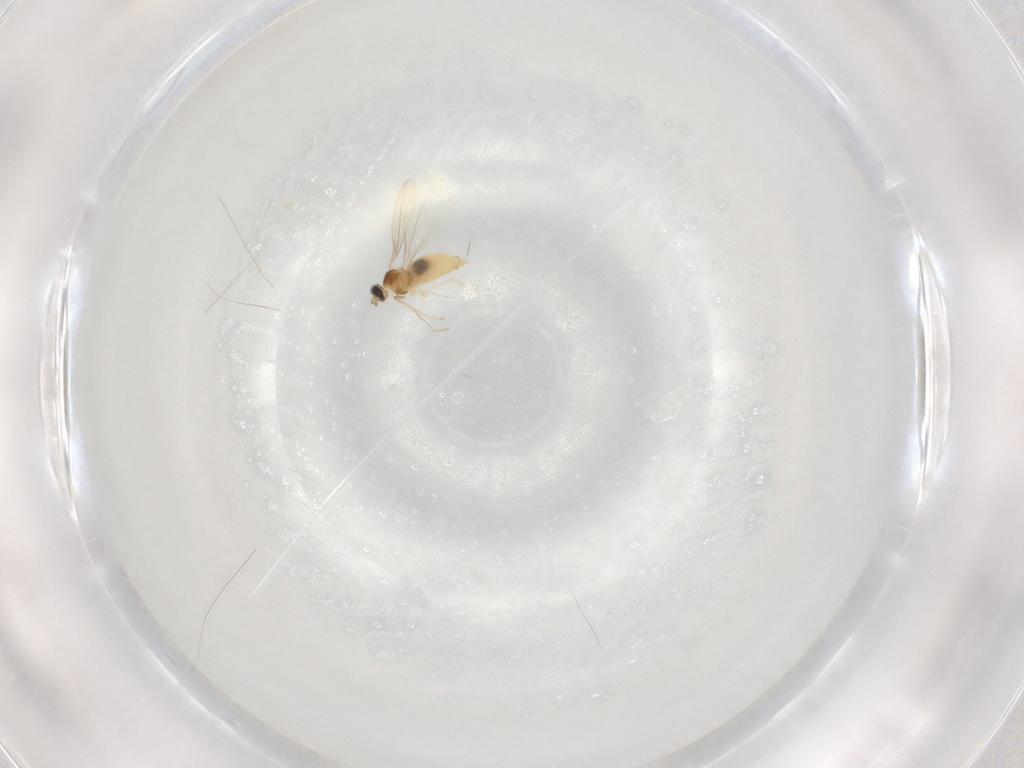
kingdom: Animalia
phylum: Arthropoda
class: Insecta
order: Diptera
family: Cecidomyiidae
